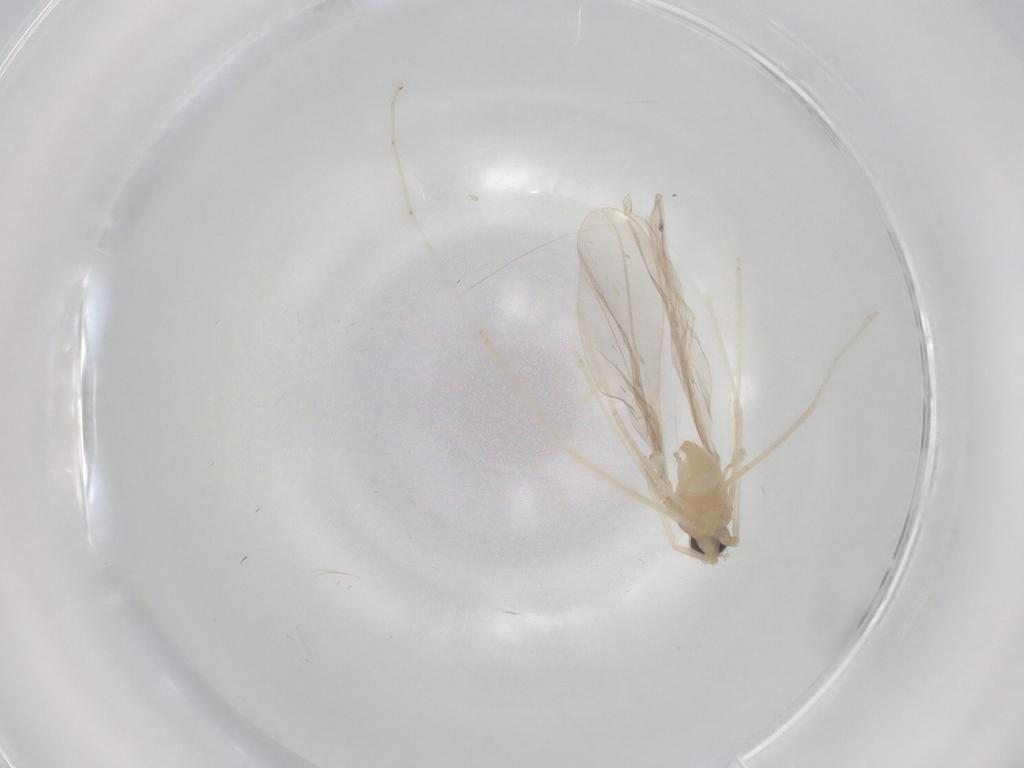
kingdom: Animalia
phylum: Arthropoda
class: Insecta
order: Diptera
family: Cecidomyiidae
